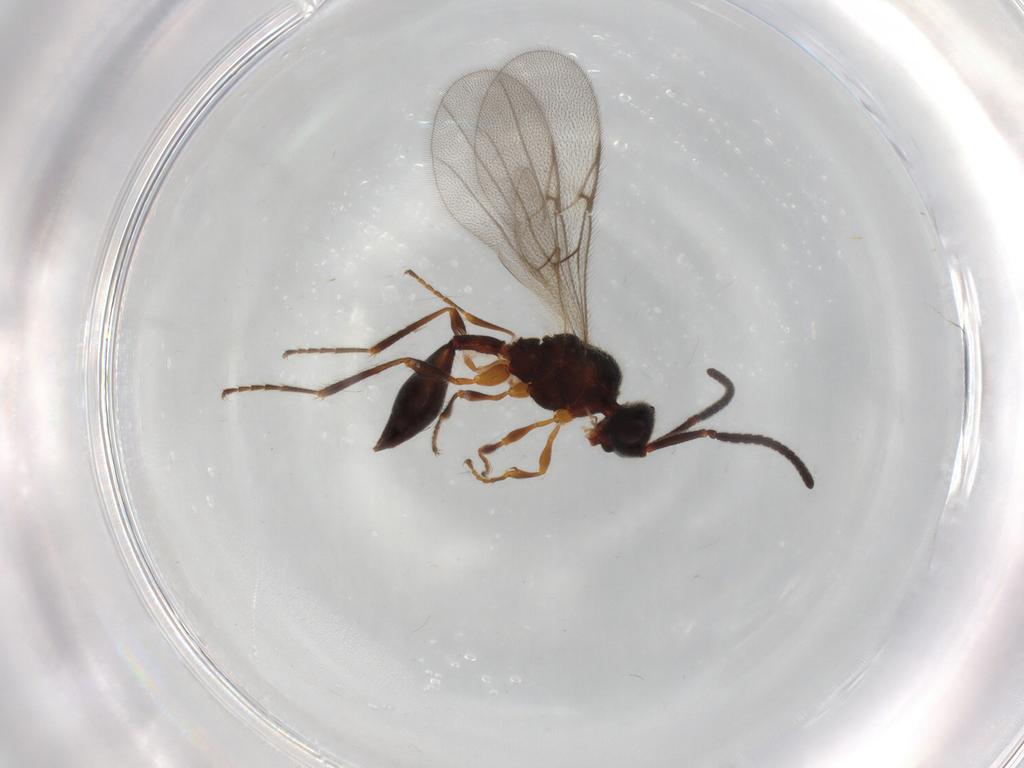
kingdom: Animalia
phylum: Arthropoda
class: Insecta
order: Hymenoptera
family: Diapriidae
